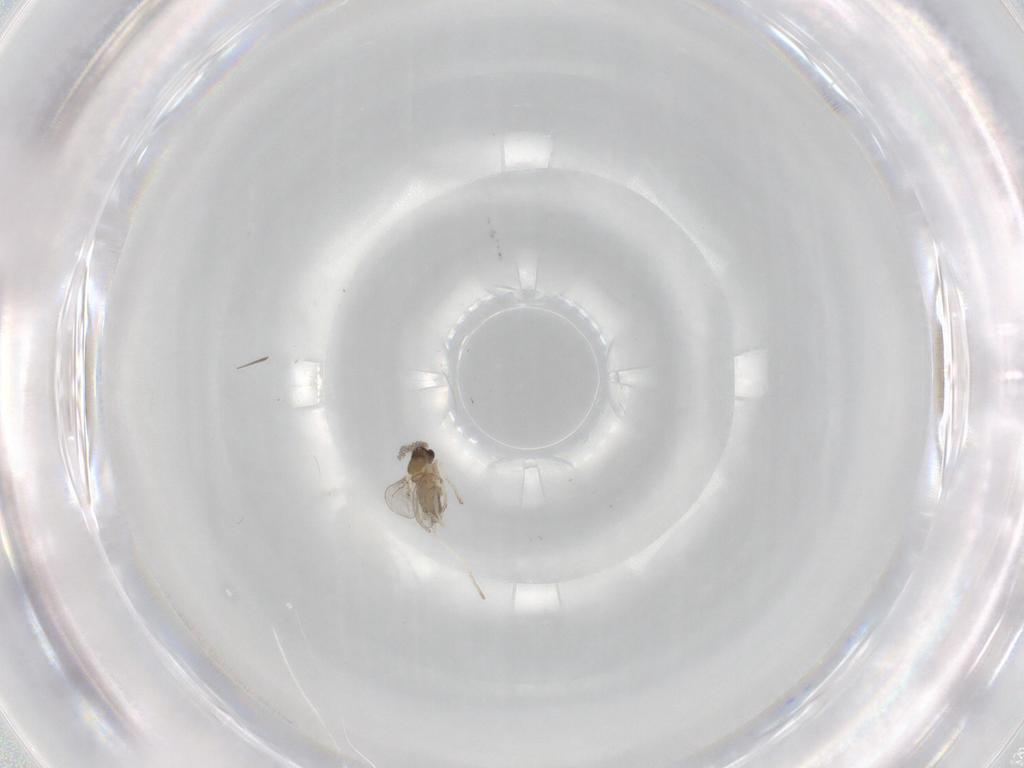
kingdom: Animalia
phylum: Arthropoda
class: Insecta
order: Diptera
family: Cecidomyiidae
